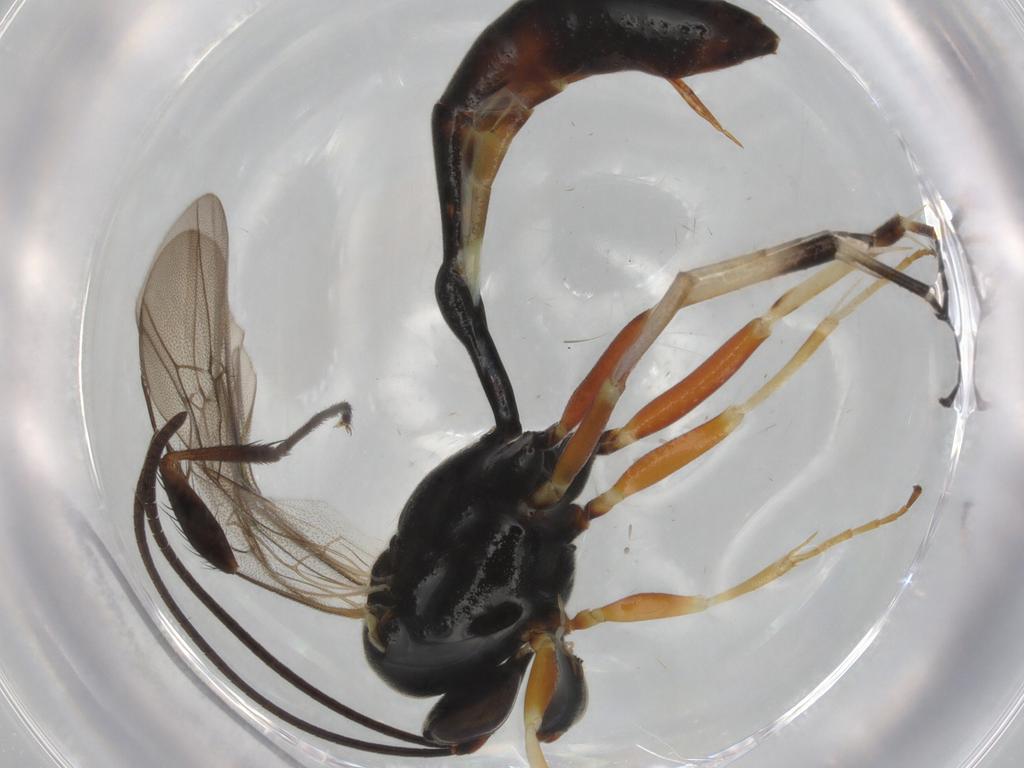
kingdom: Animalia
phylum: Arthropoda
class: Insecta
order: Hymenoptera
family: Ichneumonidae
